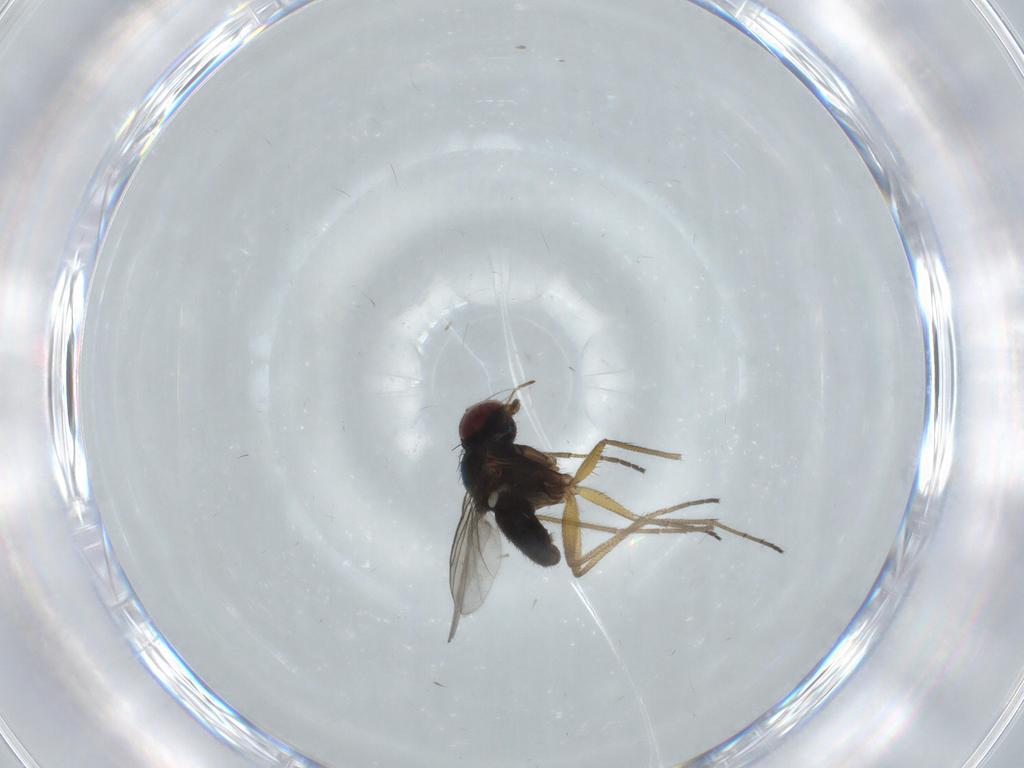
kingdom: Animalia
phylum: Arthropoda
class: Insecta
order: Diptera
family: Dolichopodidae
